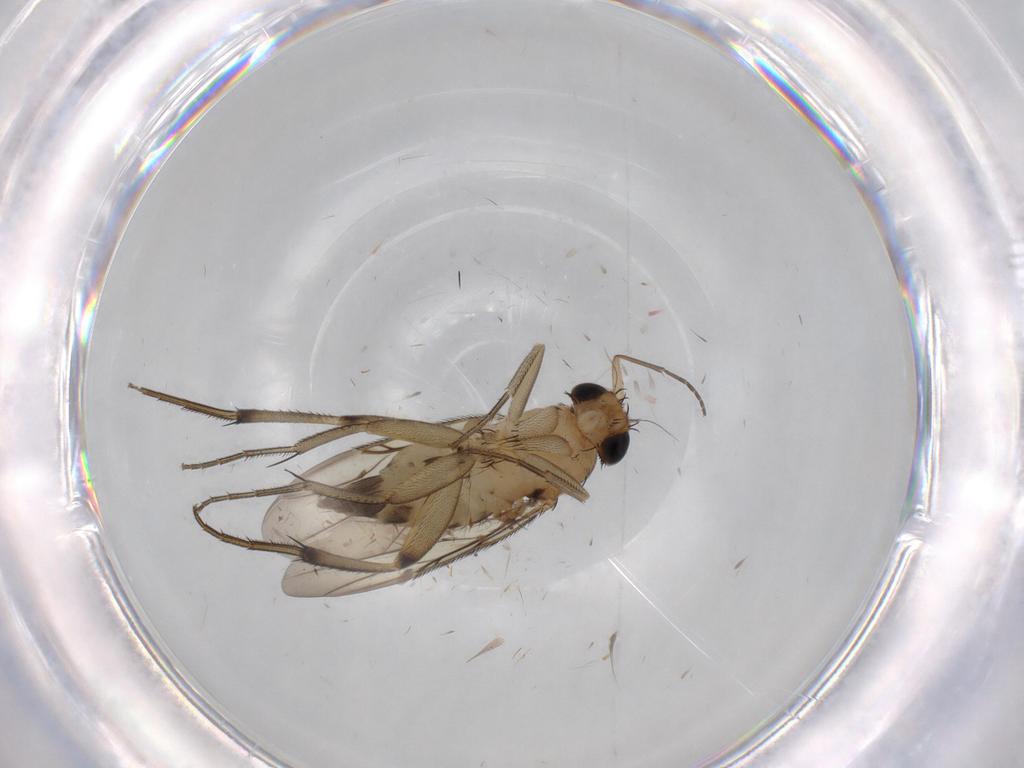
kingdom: Animalia
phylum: Arthropoda
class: Insecta
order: Diptera
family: Phoridae
